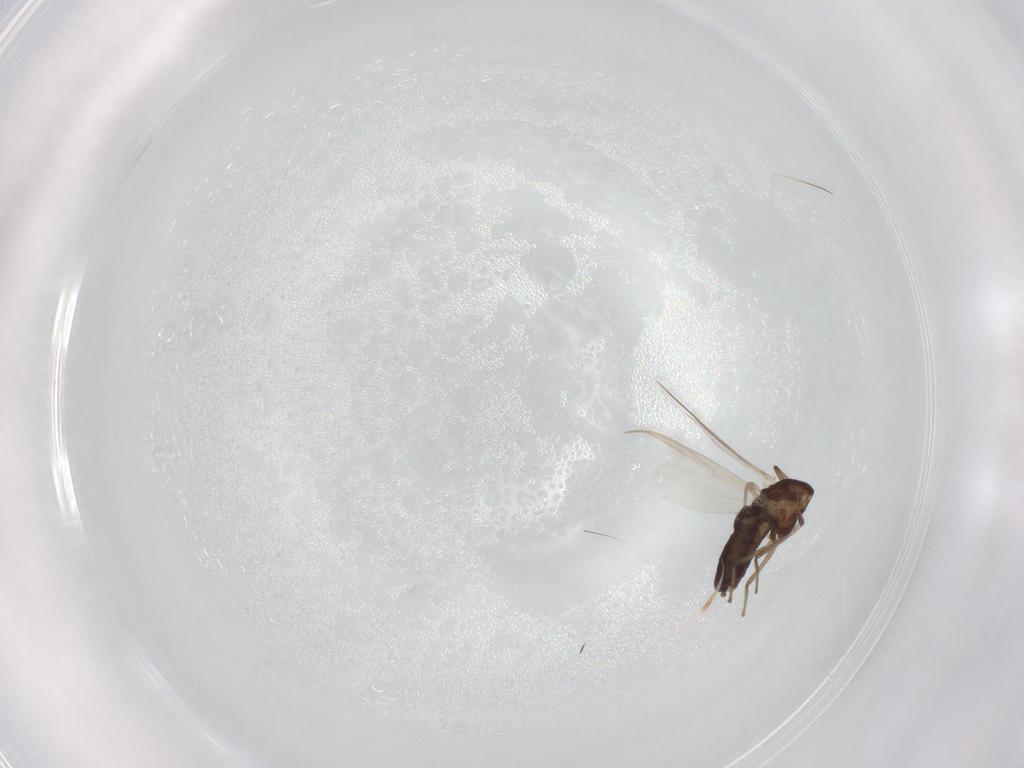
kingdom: Animalia
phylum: Arthropoda
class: Insecta
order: Diptera
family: Chironomidae
